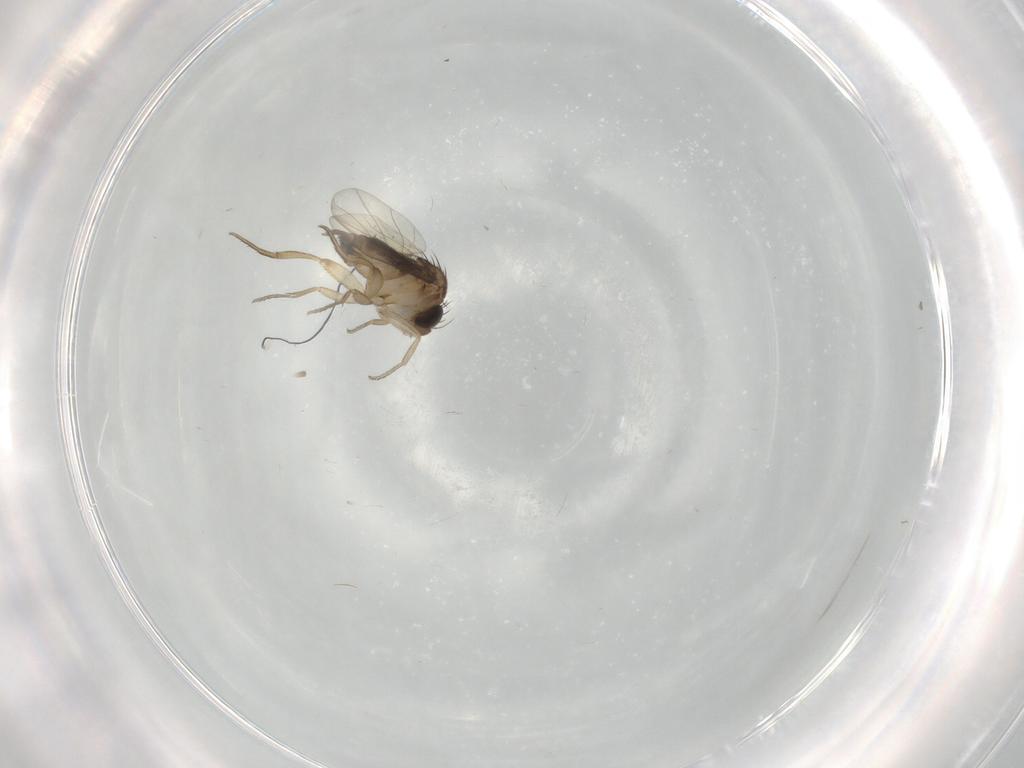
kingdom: Animalia
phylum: Arthropoda
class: Insecta
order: Diptera
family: Phoridae
